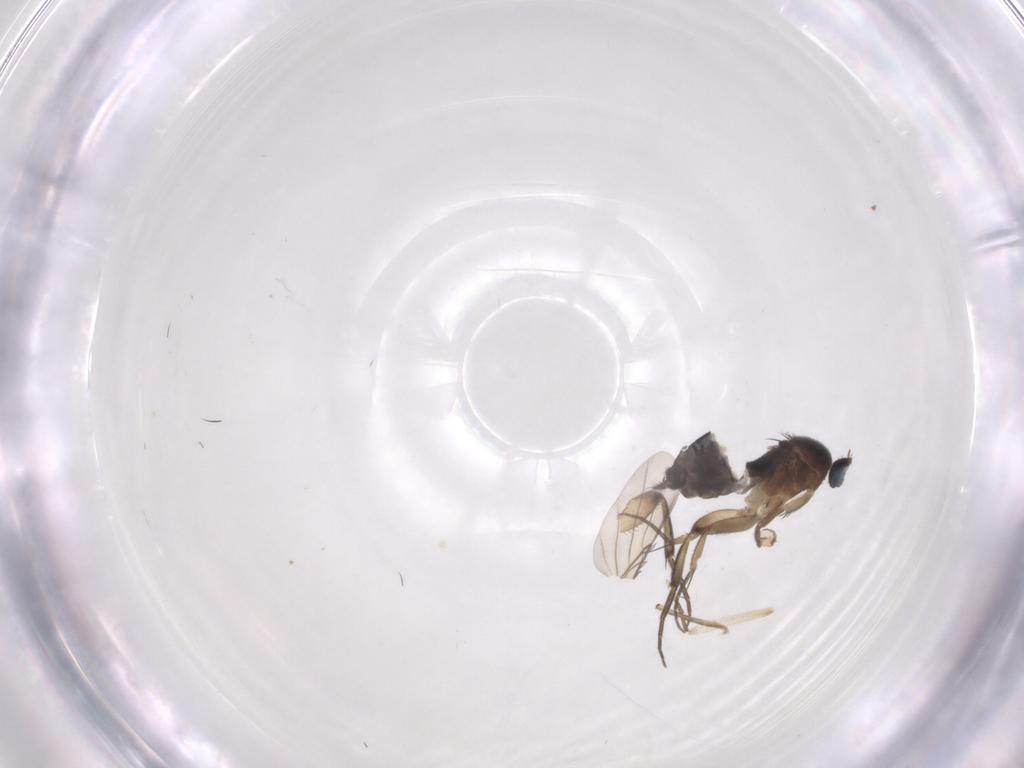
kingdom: Animalia
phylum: Arthropoda
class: Insecta
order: Diptera
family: Phoridae
